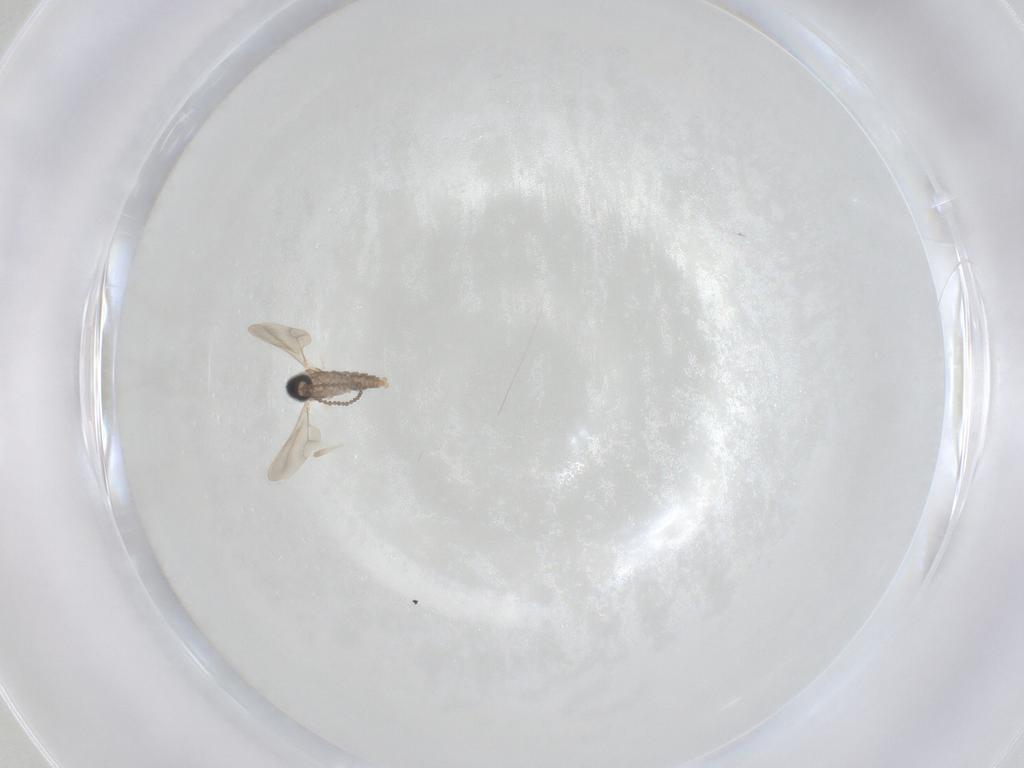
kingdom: Animalia
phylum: Arthropoda
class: Insecta
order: Diptera
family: Cecidomyiidae
